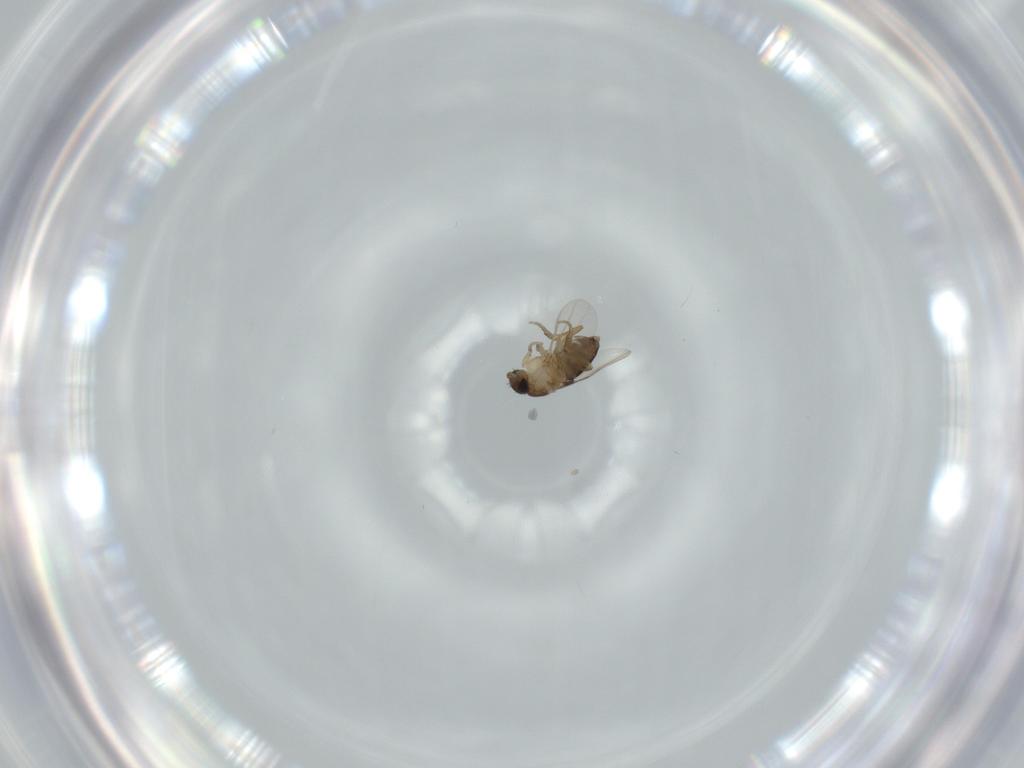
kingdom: Animalia
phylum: Arthropoda
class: Insecta
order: Diptera
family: Phoridae
